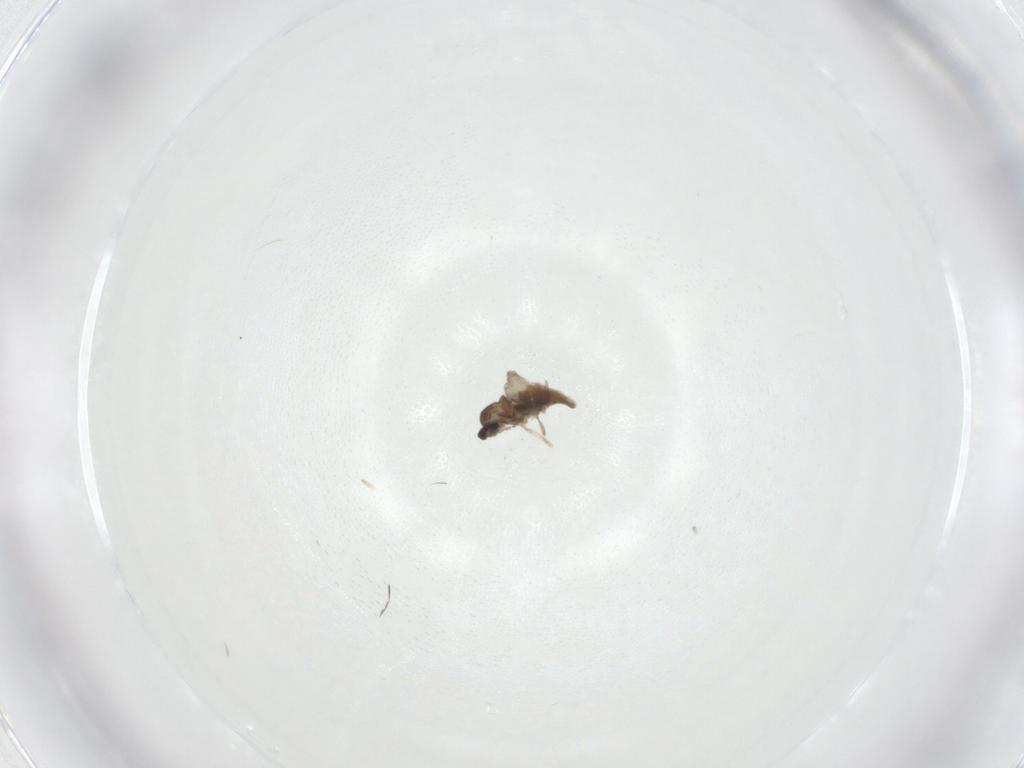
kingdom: Animalia
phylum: Arthropoda
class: Insecta
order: Diptera
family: Cecidomyiidae
